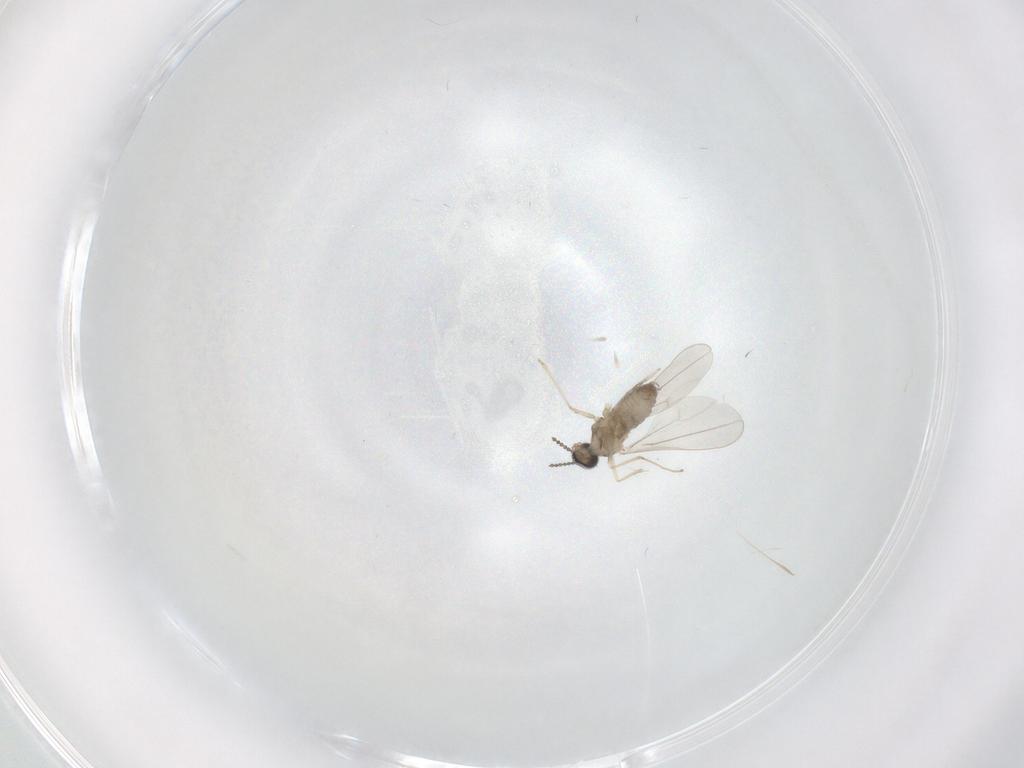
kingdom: Animalia
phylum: Arthropoda
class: Insecta
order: Diptera
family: Cecidomyiidae
